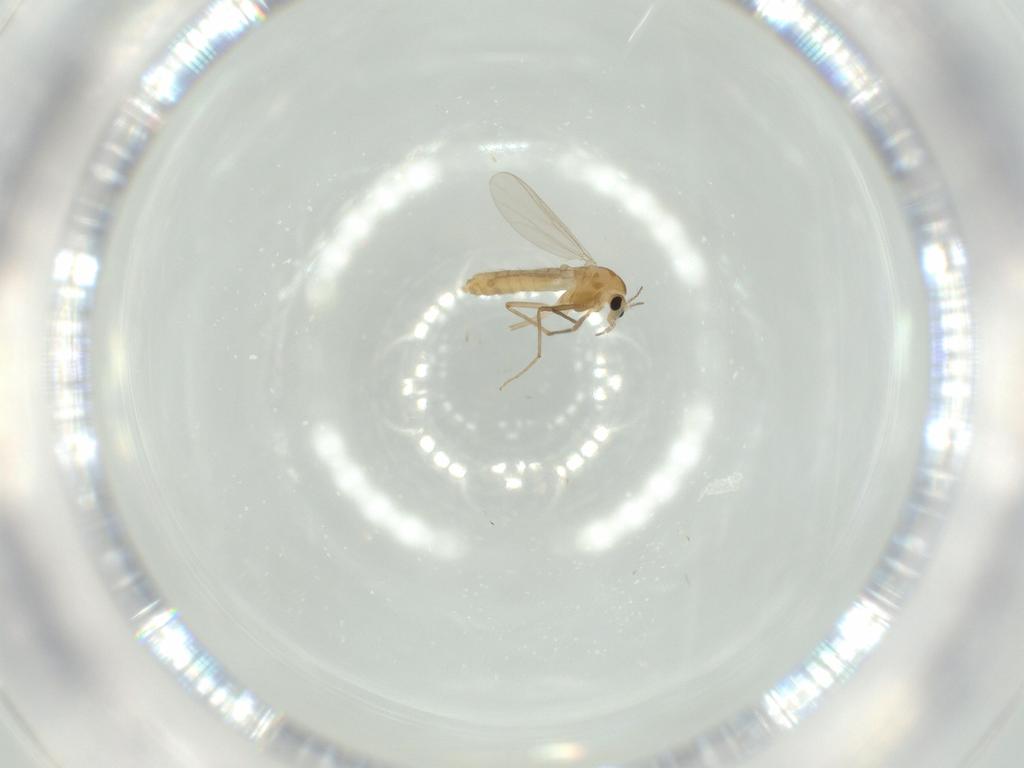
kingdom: Animalia
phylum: Arthropoda
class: Insecta
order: Diptera
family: Chironomidae
